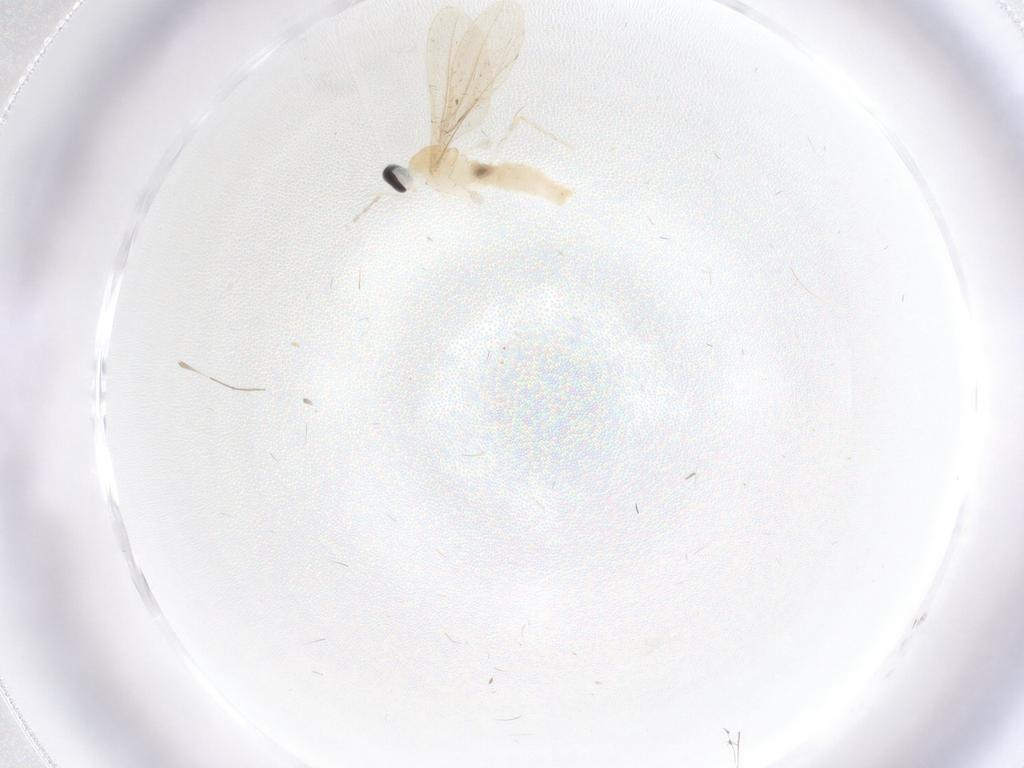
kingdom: Animalia
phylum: Arthropoda
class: Insecta
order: Diptera
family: Cecidomyiidae
